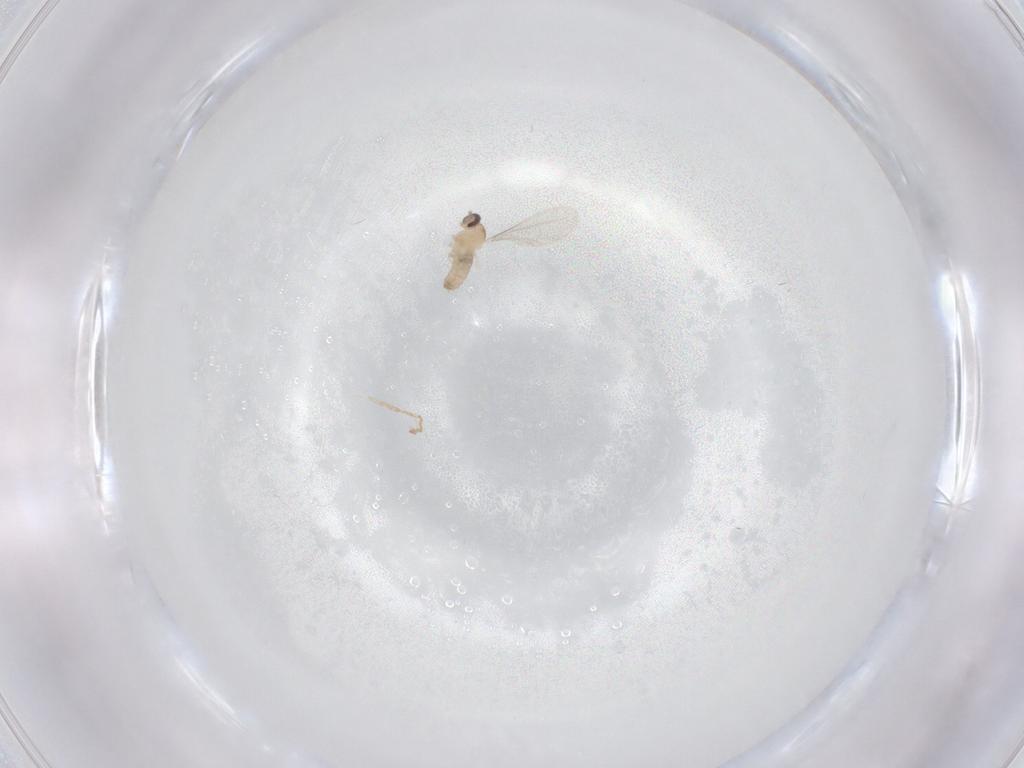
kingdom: Animalia
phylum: Arthropoda
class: Insecta
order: Diptera
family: Cecidomyiidae
